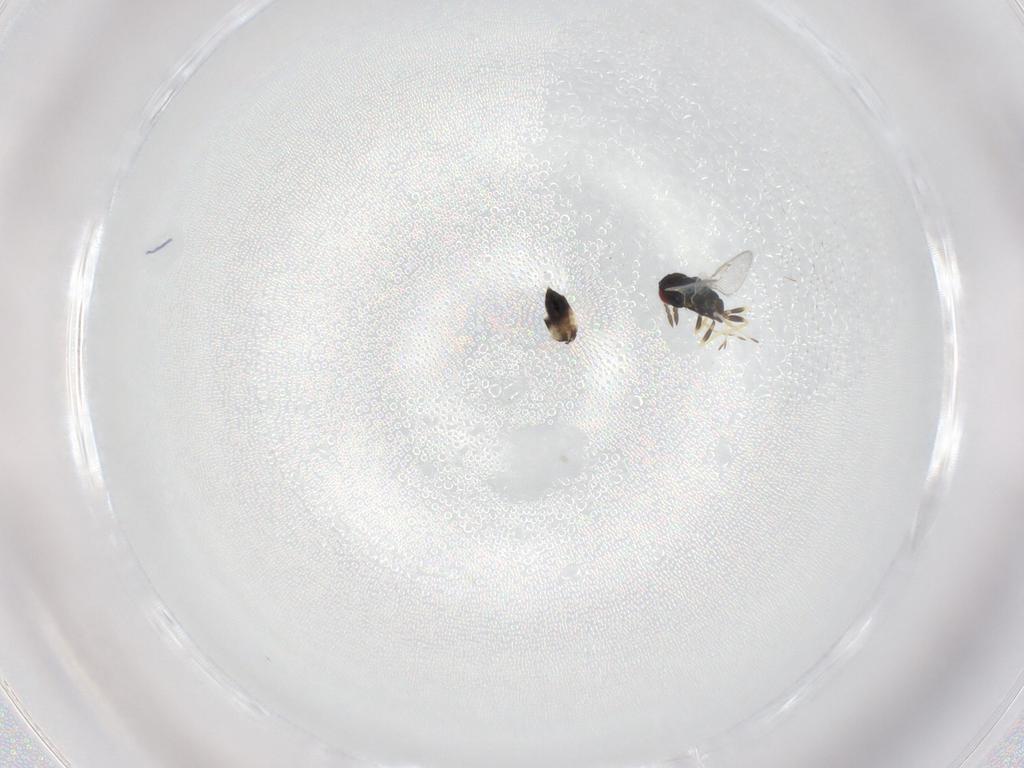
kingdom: Animalia
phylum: Arthropoda
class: Insecta
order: Hymenoptera
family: Eulophidae
